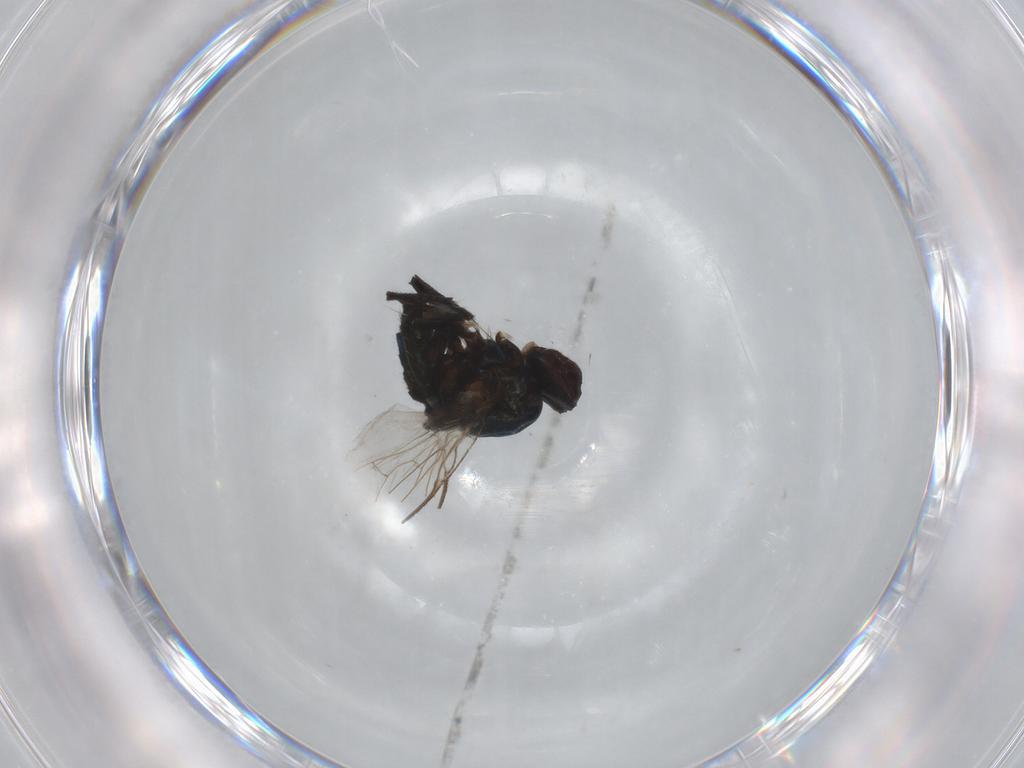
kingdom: Animalia
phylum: Arthropoda
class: Insecta
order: Diptera
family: Agromyzidae
